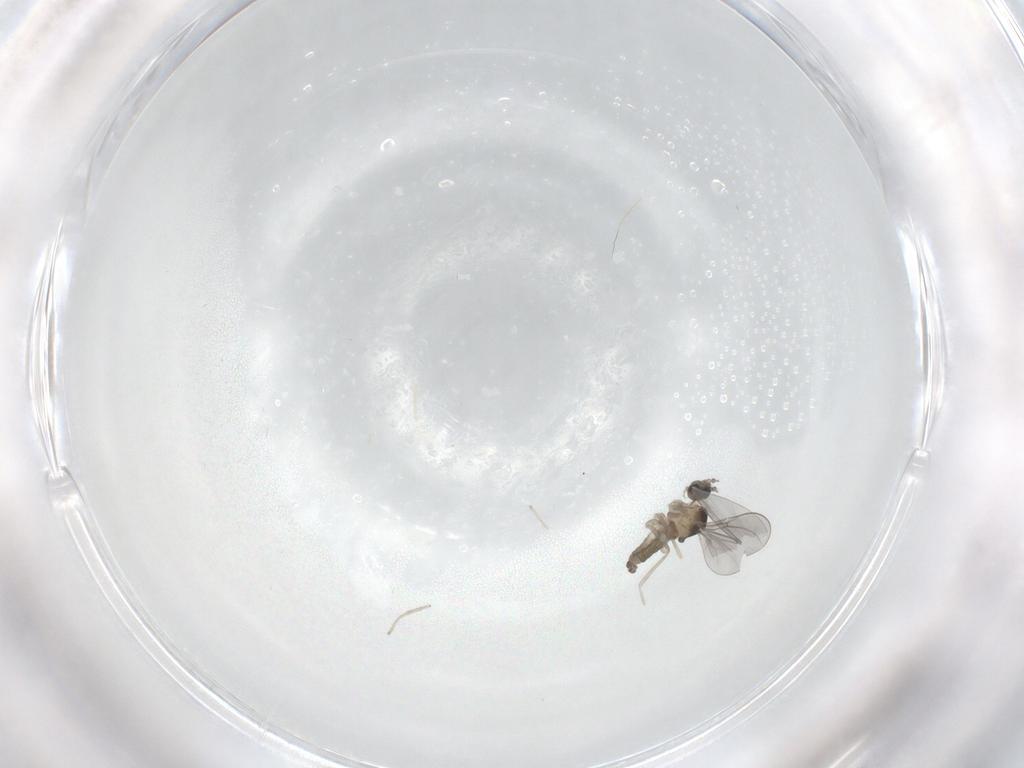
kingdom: Animalia
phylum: Arthropoda
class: Insecta
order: Diptera
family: Cecidomyiidae
